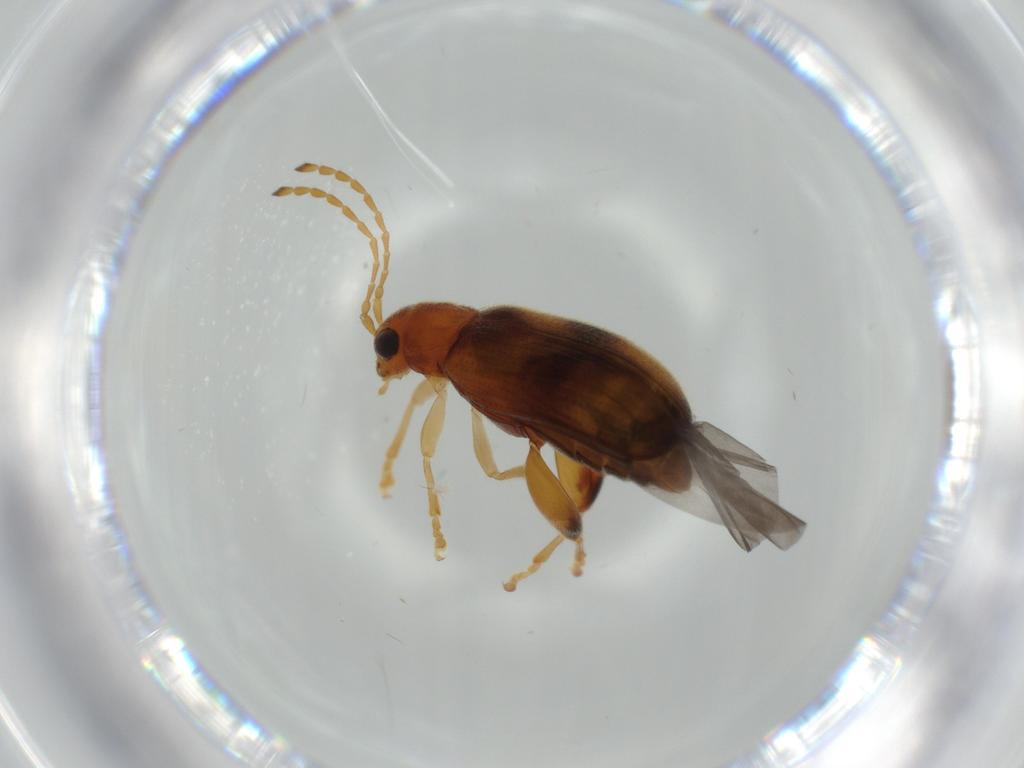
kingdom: Animalia
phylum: Arthropoda
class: Insecta
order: Coleoptera
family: Chrysomelidae
